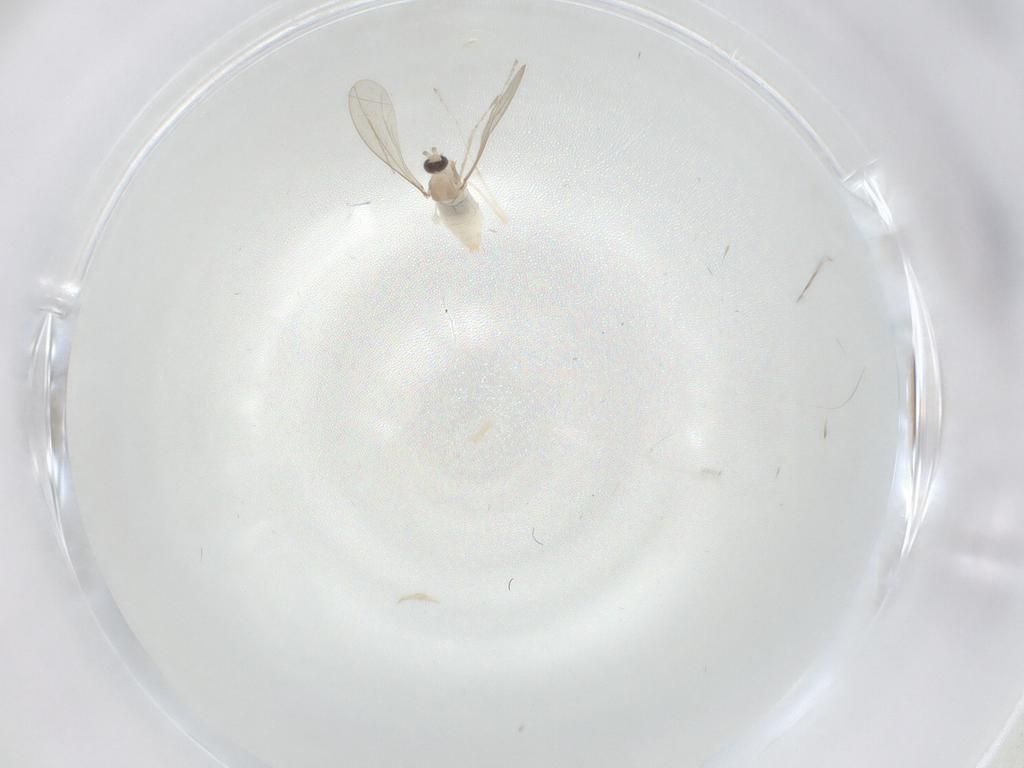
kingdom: Animalia
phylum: Arthropoda
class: Insecta
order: Diptera
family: Cecidomyiidae
